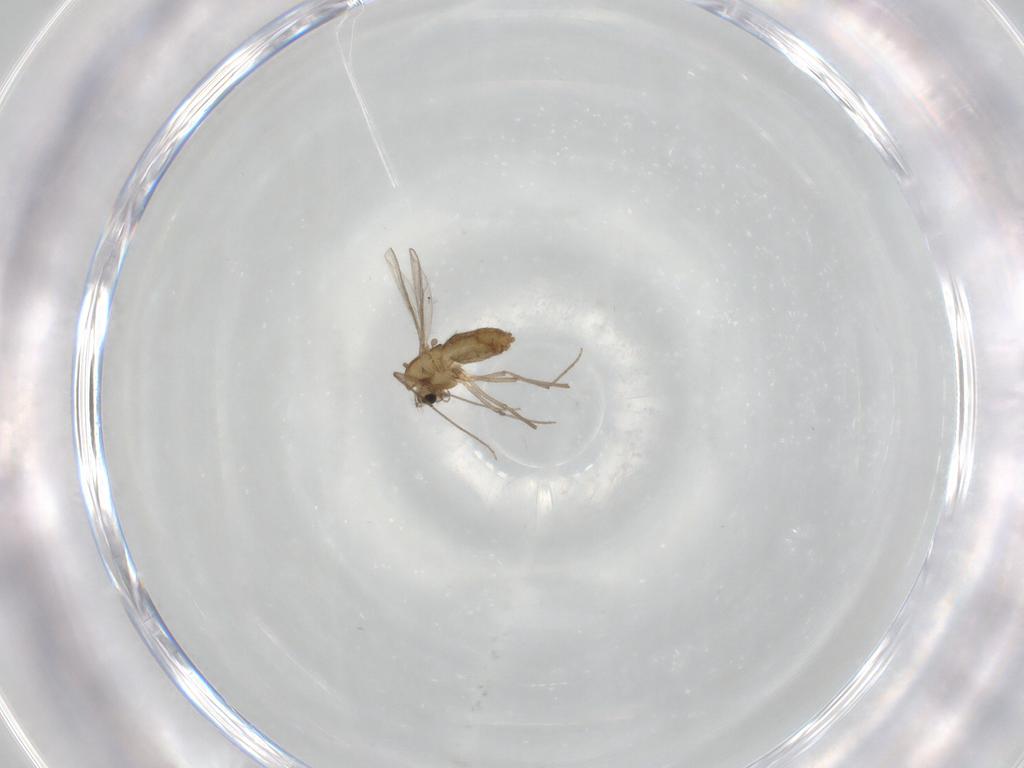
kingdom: Animalia
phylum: Arthropoda
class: Insecta
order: Diptera
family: Chironomidae
